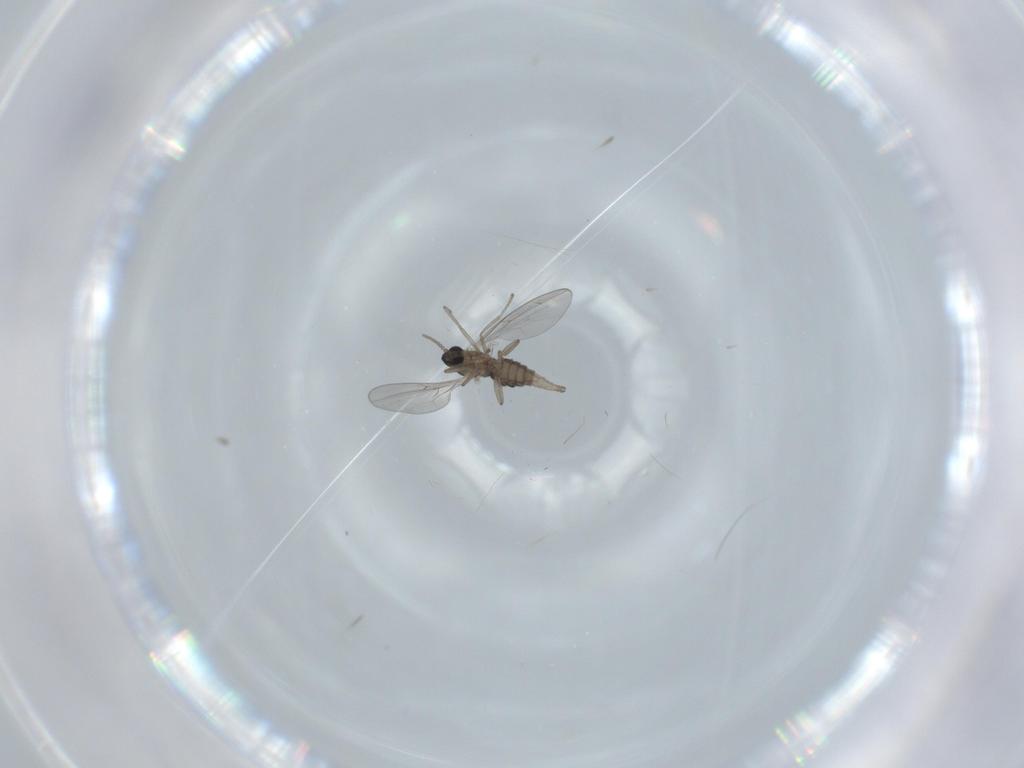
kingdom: Animalia
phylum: Arthropoda
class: Insecta
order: Diptera
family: Cecidomyiidae
